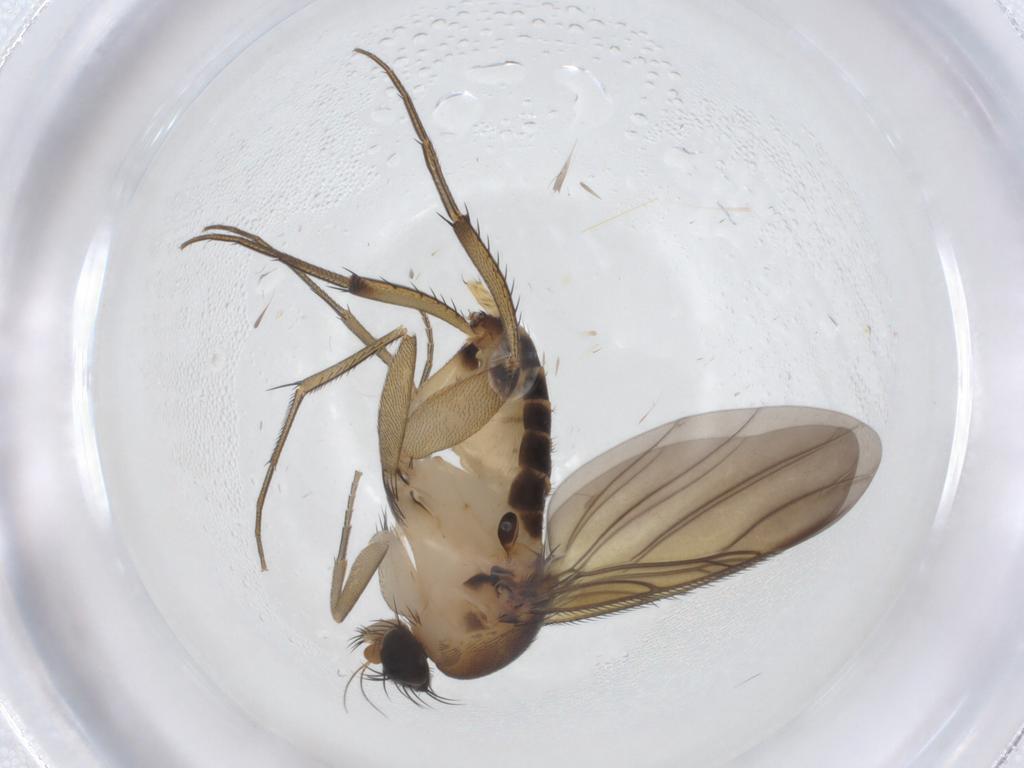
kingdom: Animalia
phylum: Arthropoda
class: Insecta
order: Diptera
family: Phoridae
